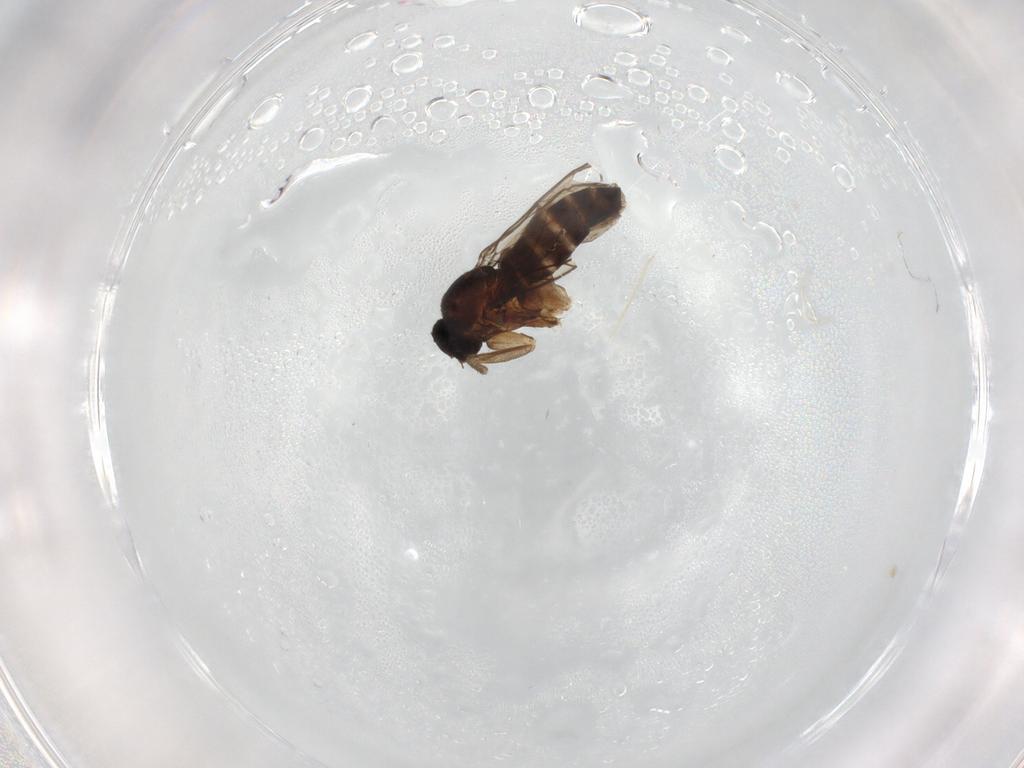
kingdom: Animalia
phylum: Arthropoda
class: Insecta
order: Diptera
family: Phoridae
